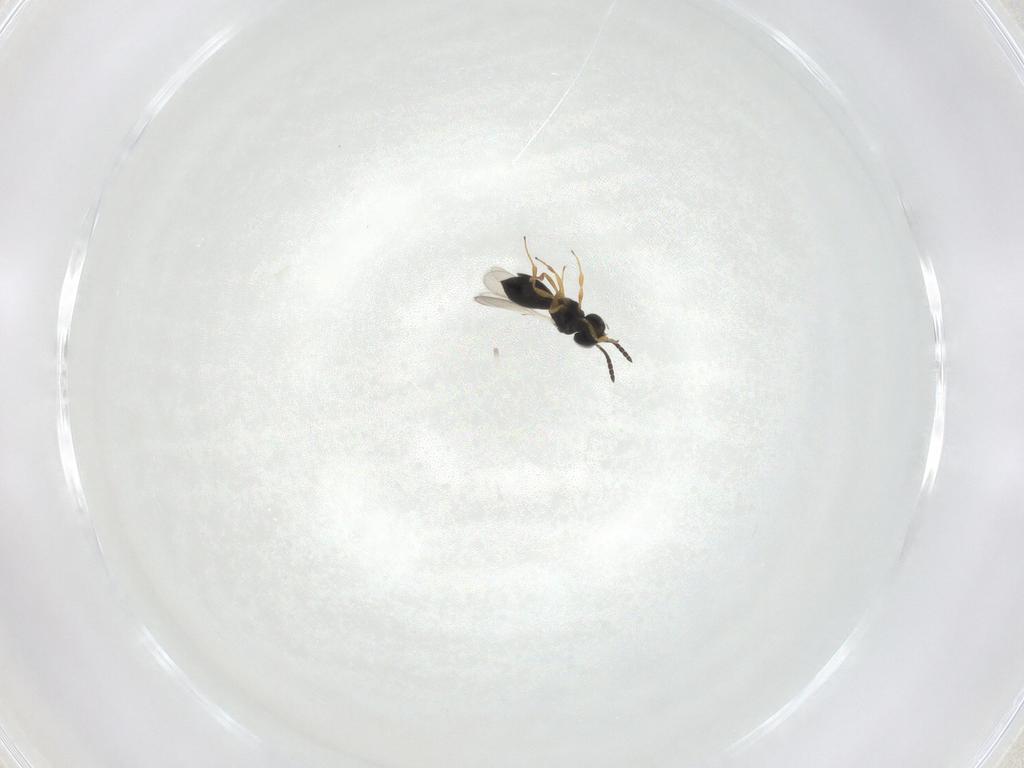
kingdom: Animalia
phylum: Arthropoda
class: Insecta
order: Hymenoptera
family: Scelionidae
